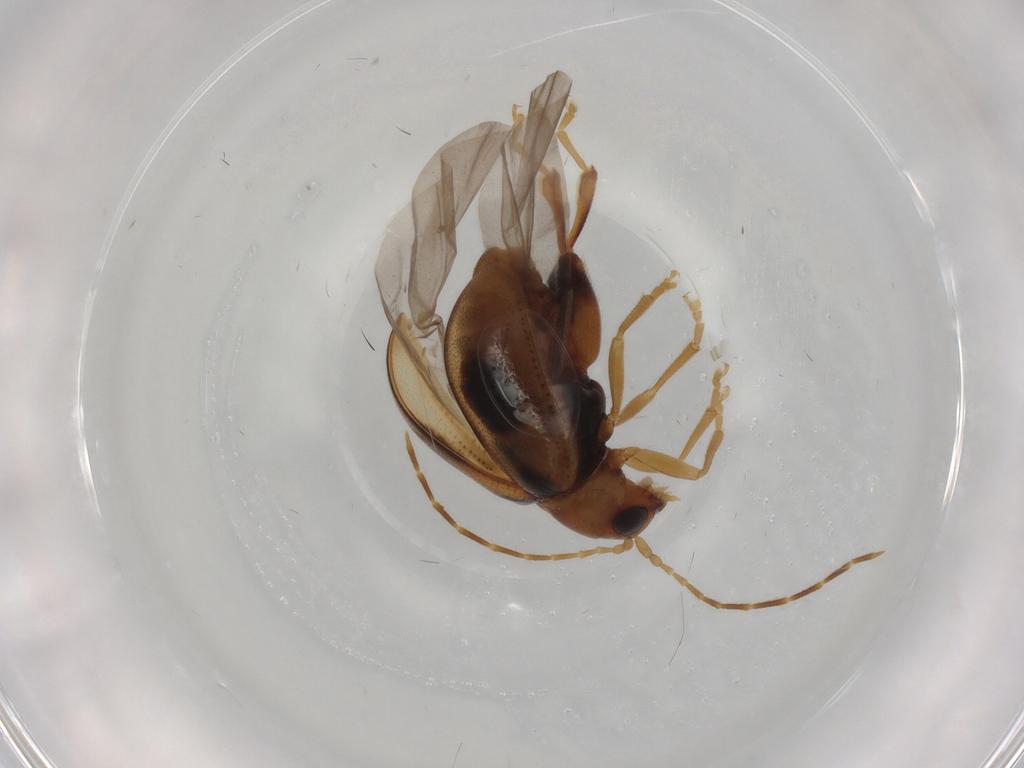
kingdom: Animalia
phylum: Arthropoda
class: Insecta
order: Coleoptera
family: Curculionidae
